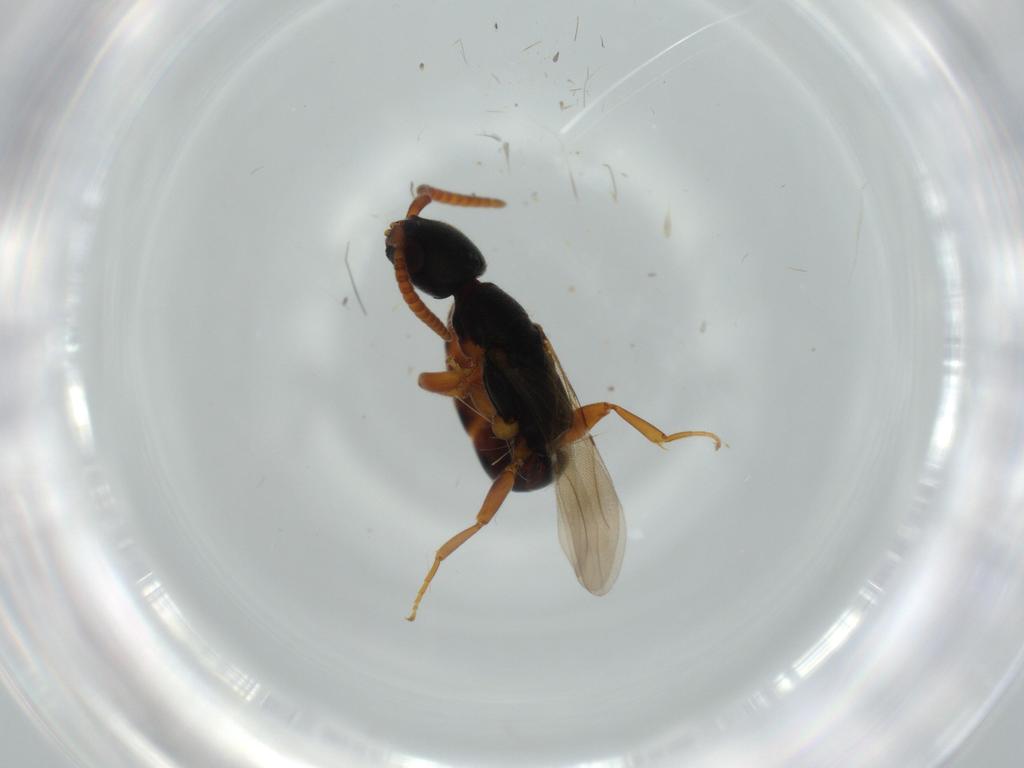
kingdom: Animalia
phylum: Arthropoda
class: Insecta
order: Hymenoptera
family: Bethylidae
